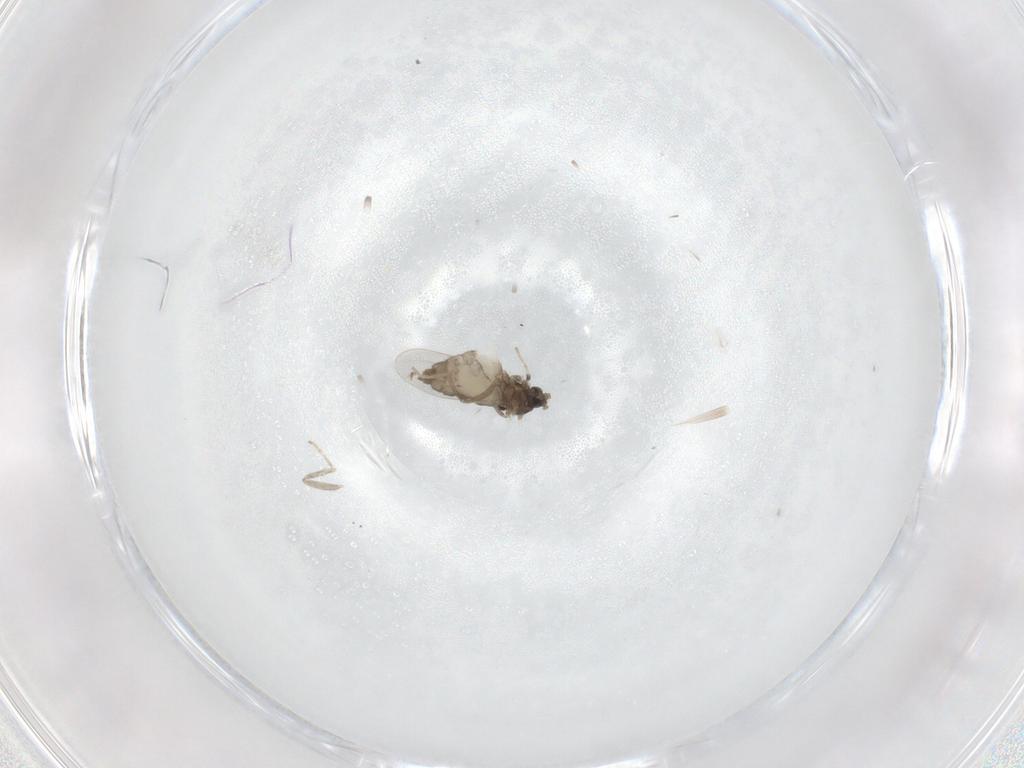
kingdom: Animalia
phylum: Arthropoda
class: Insecta
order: Diptera
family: Cecidomyiidae
